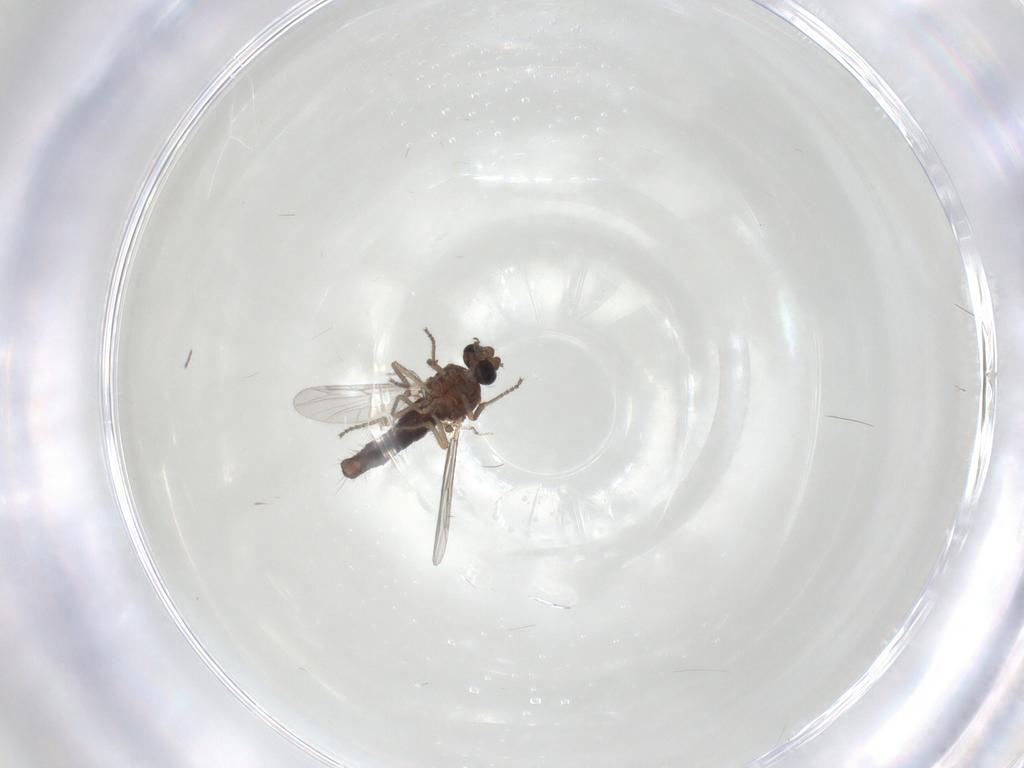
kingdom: Animalia
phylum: Arthropoda
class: Insecta
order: Diptera
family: Ceratopogonidae
